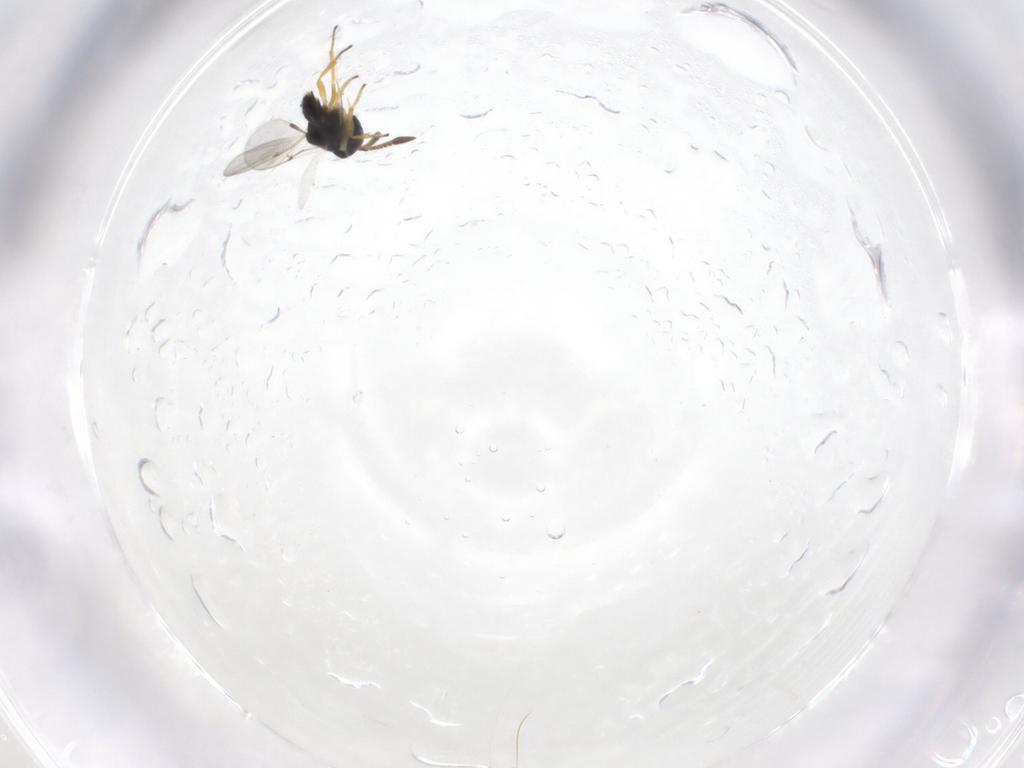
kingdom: Animalia
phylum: Arthropoda
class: Insecta
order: Hymenoptera
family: Encyrtidae
